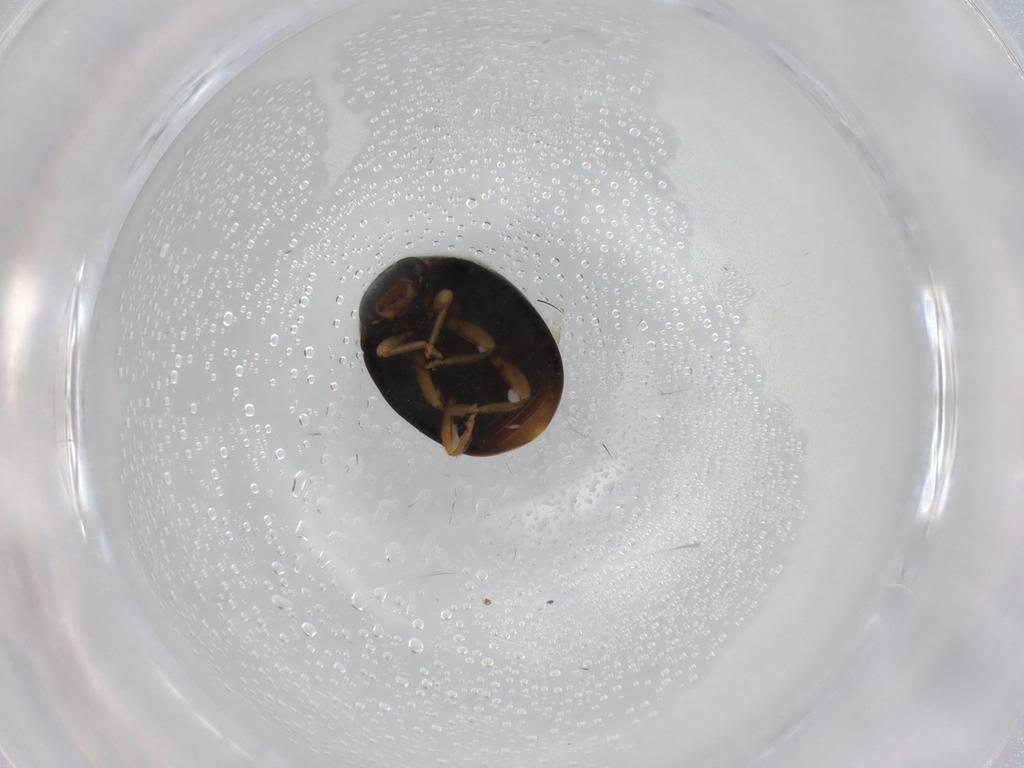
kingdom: Animalia
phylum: Arthropoda
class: Insecta
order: Coleoptera
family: Coccinellidae
